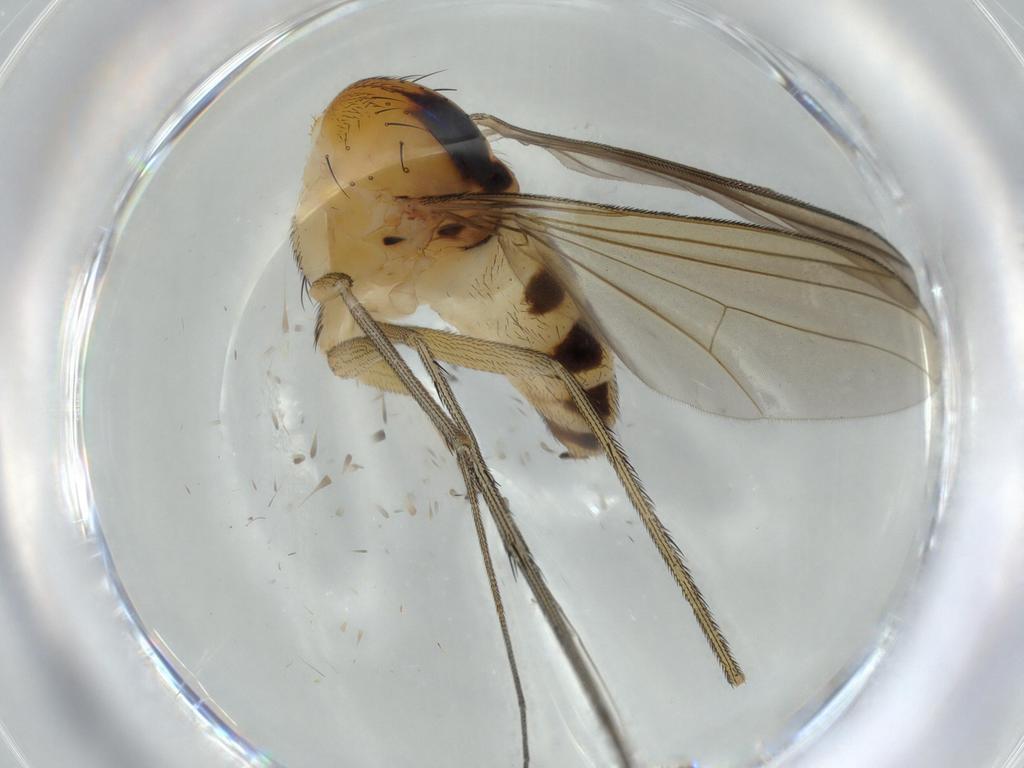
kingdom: Animalia
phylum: Arthropoda
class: Insecta
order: Diptera
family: Dolichopodidae
